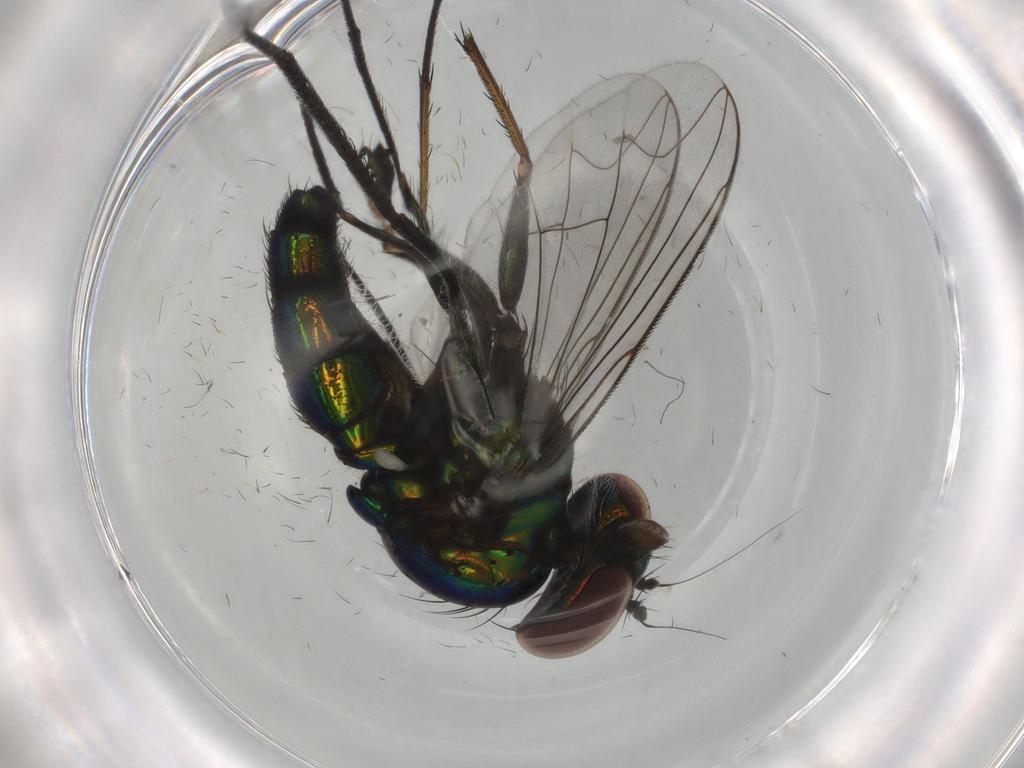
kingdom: Animalia
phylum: Arthropoda
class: Insecta
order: Diptera
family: Dolichopodidae
